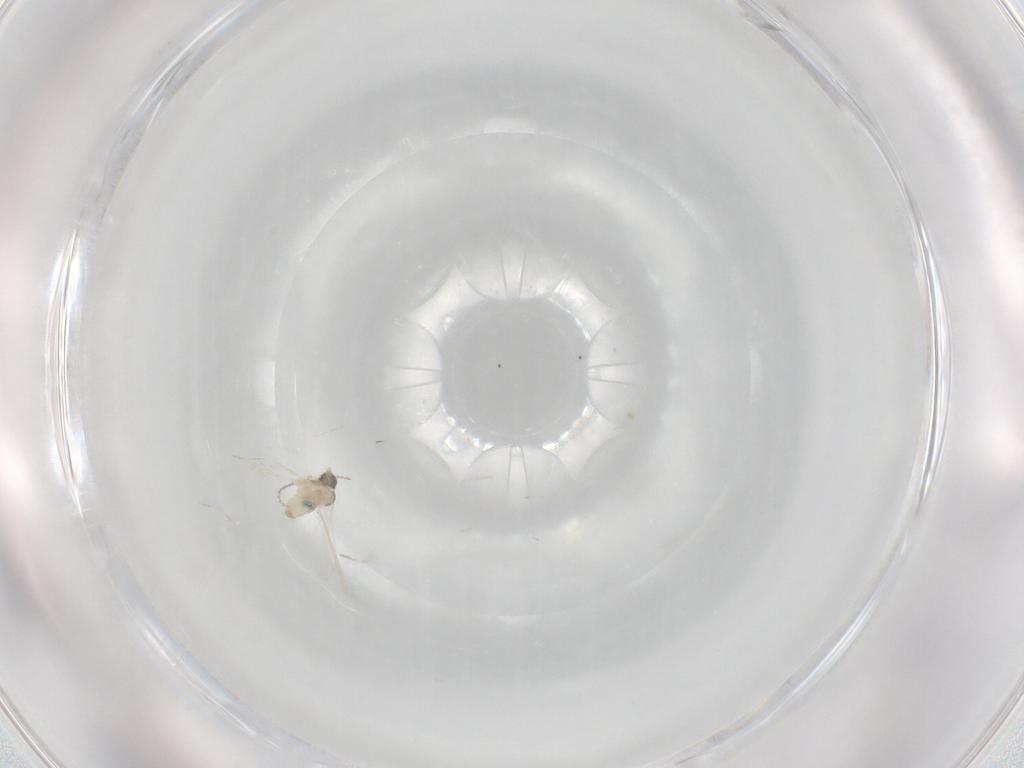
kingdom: Animalia
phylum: Arthropoda
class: Insecta
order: Diptera
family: Cecidomyiidae
